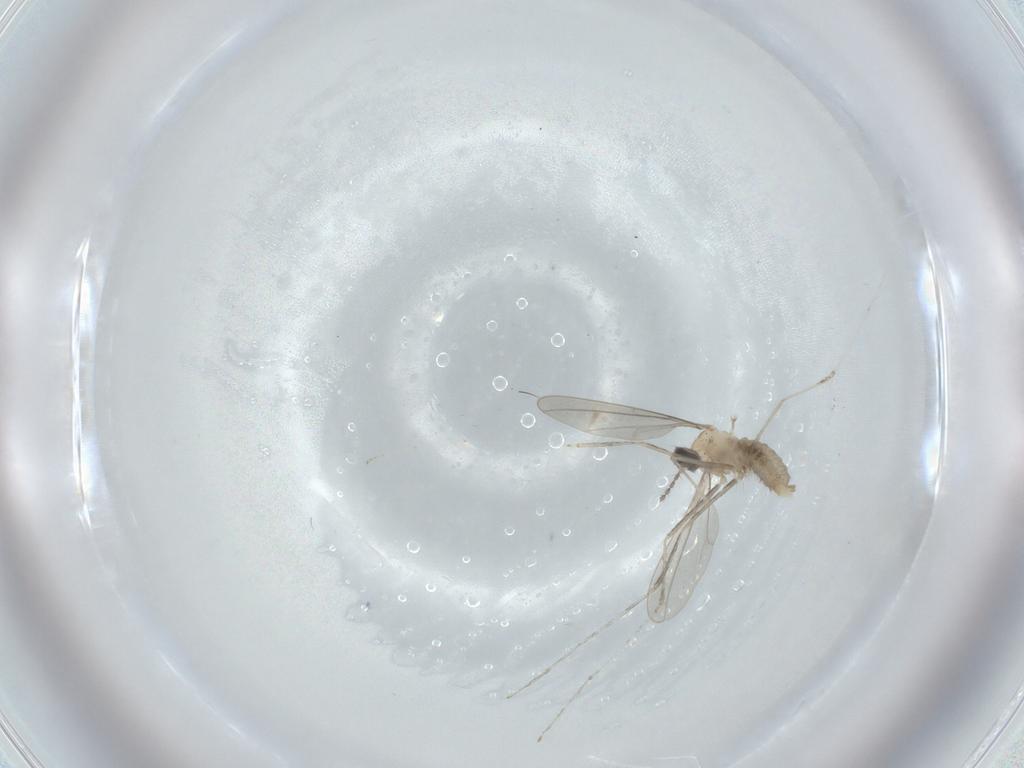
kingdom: Animalia
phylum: Arthropoda
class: Insecta
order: Diptera
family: Cecidomyiidae
